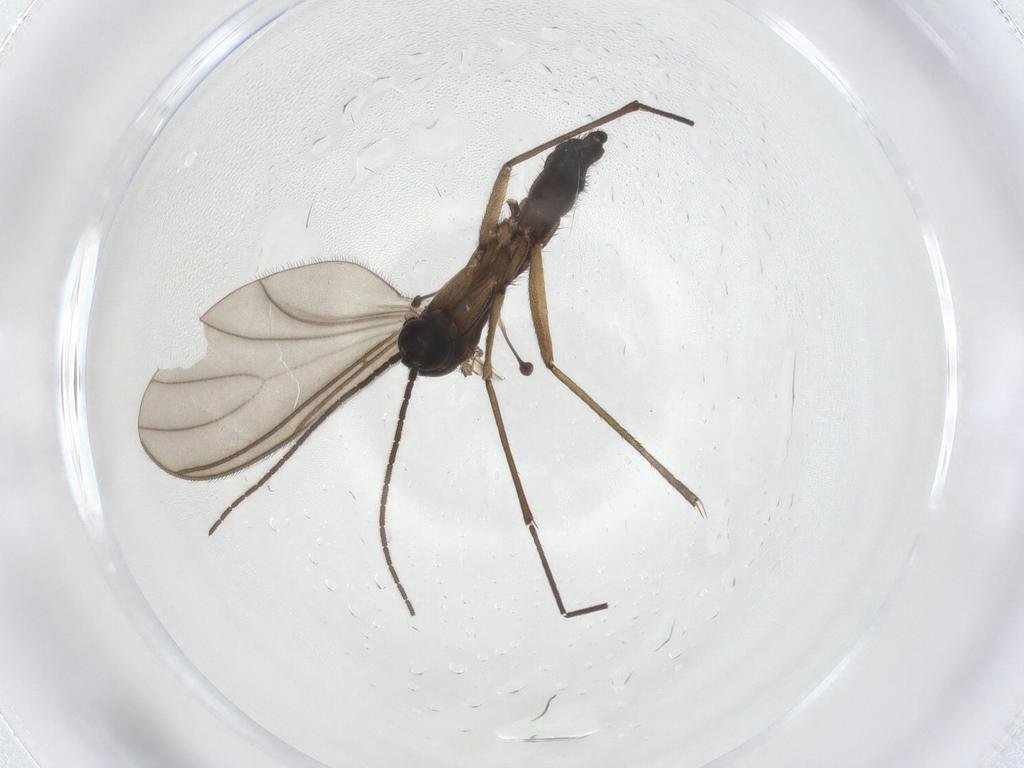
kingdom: Animalia
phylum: Arthropoda
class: Insecta
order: Diptera
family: Sciaridae
